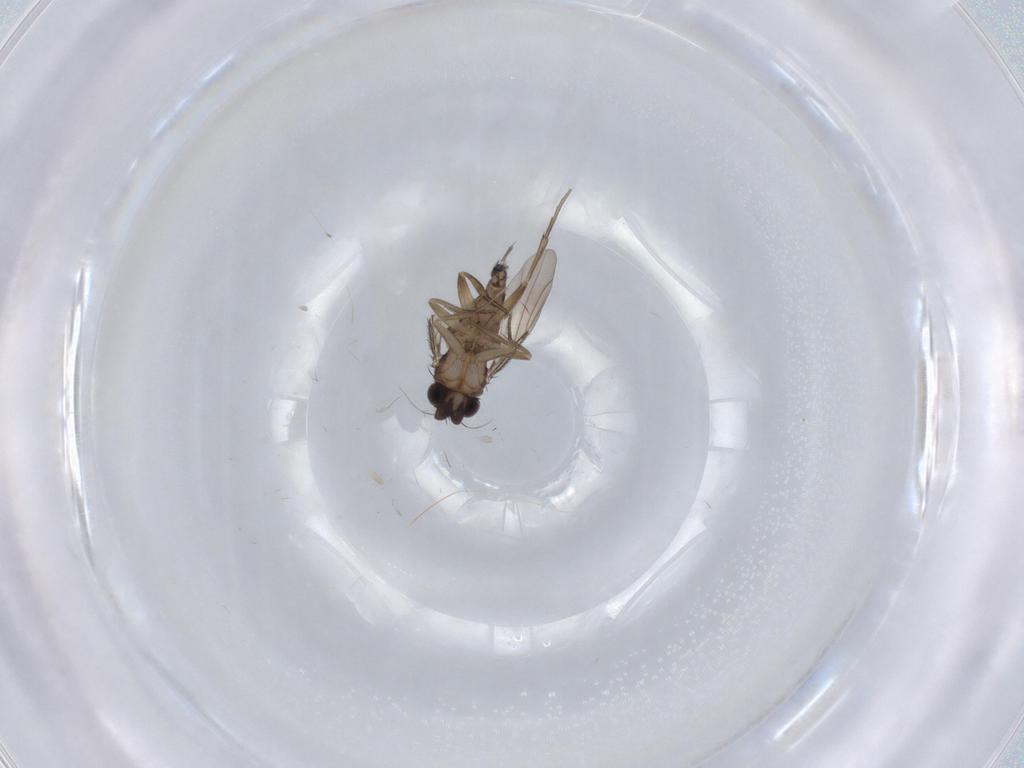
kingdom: Animalia
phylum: Arthropoda
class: Insecta
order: Diptera
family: Phoridae
